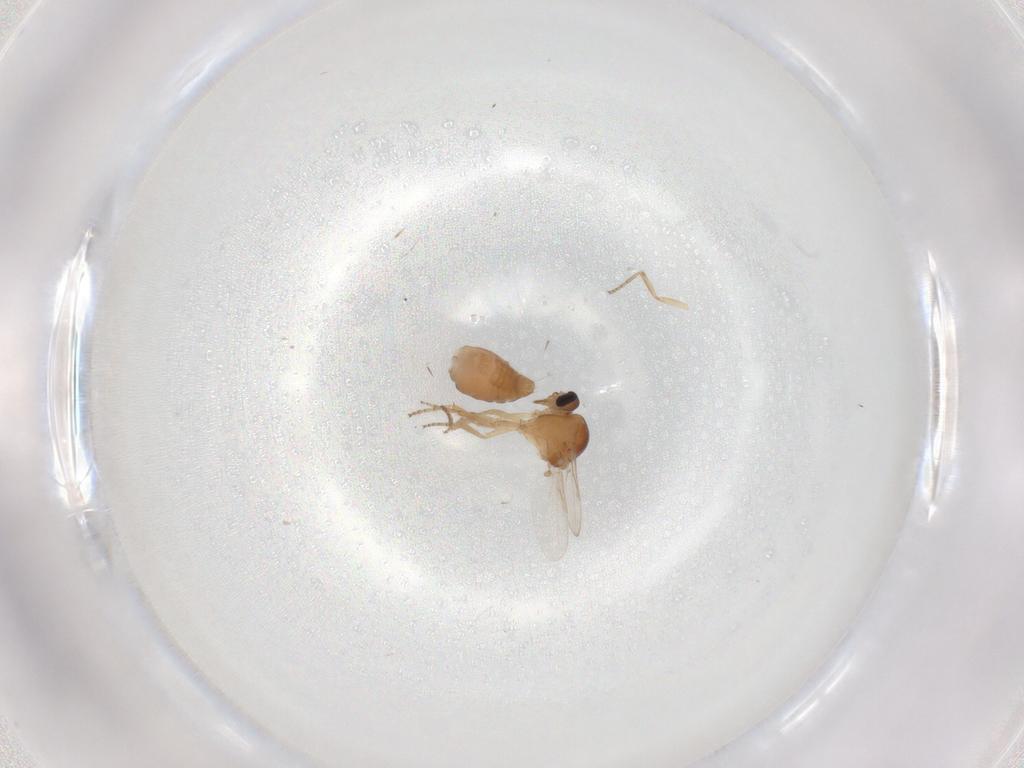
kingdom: Animalia
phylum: Arthropoda
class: Insecta
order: Diptera
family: Ceratopogonidae
